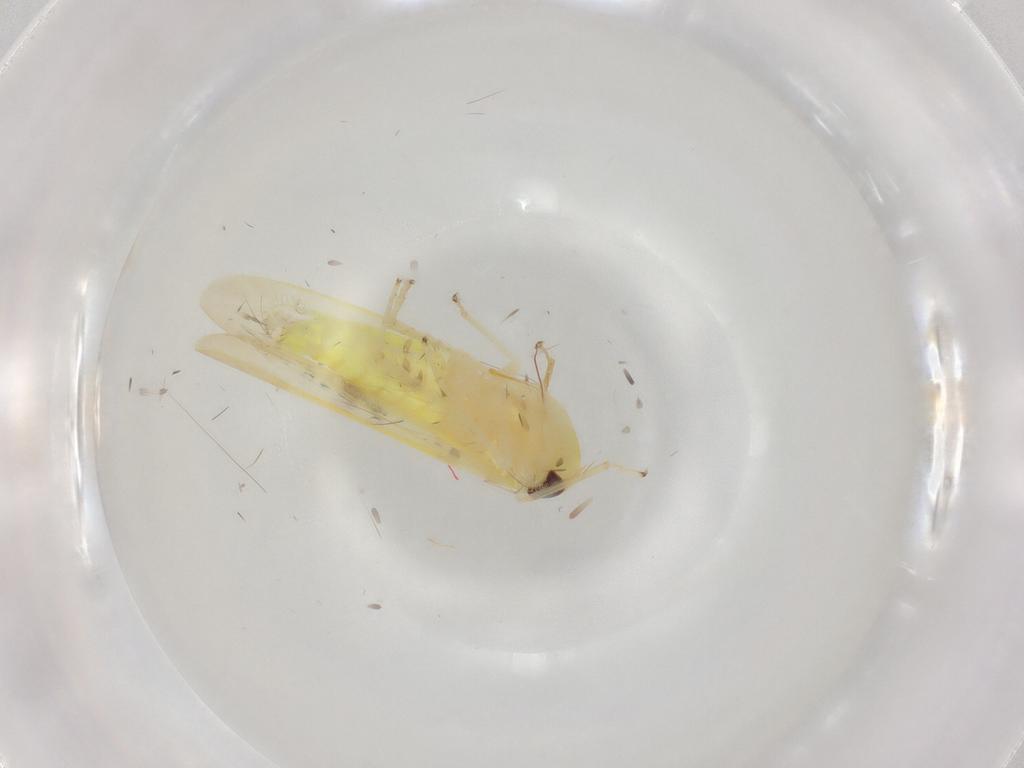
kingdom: Animalia
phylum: Arthropoda
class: Insecta
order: Hemiptera
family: Cicadellidae
